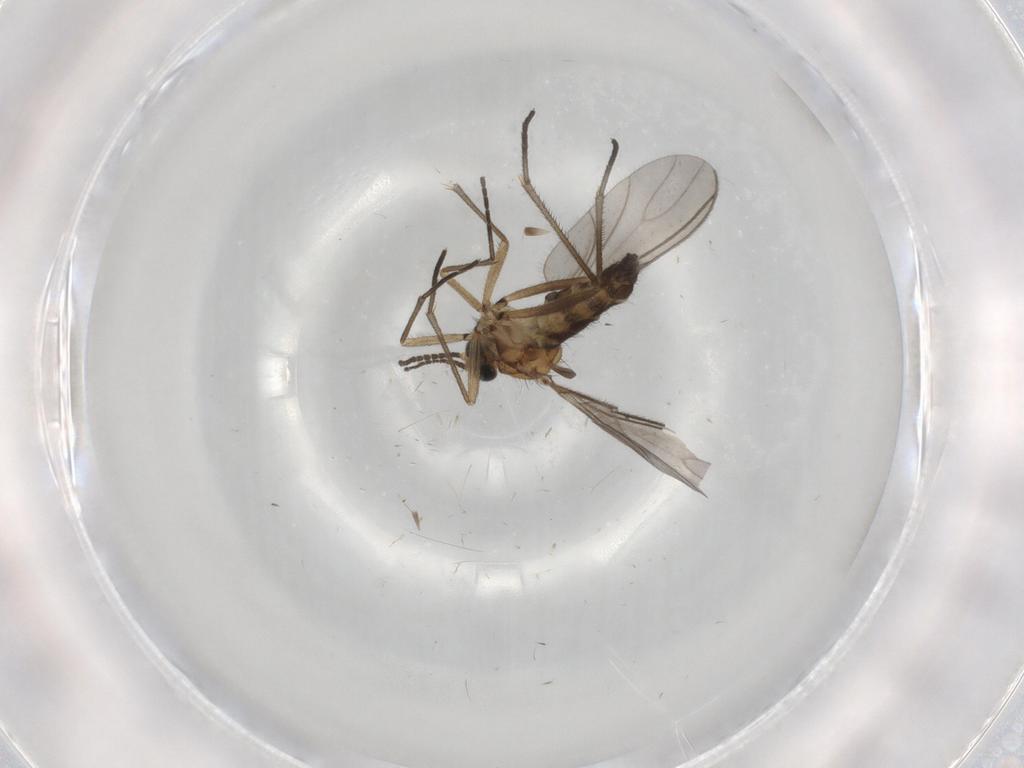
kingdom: Animalia
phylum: Arthropoda
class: Insecta
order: Diptera
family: Sciaridae
